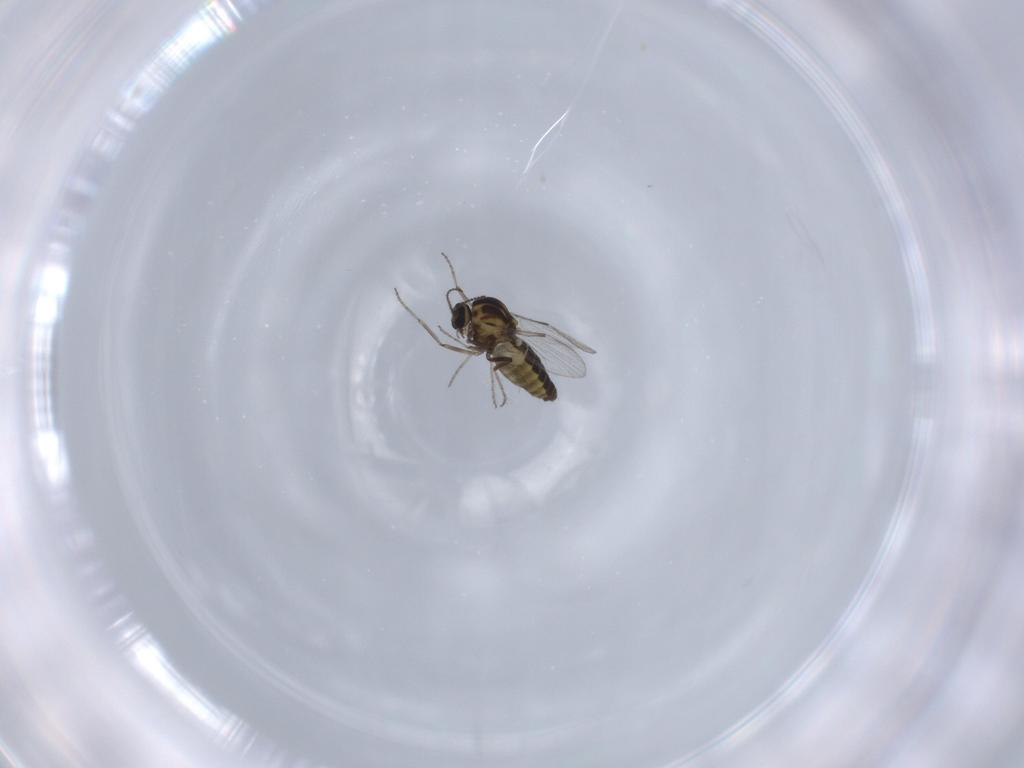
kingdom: Animalia
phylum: Arthropoda
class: Insecta
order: Diptera
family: Ceratopogonidae
